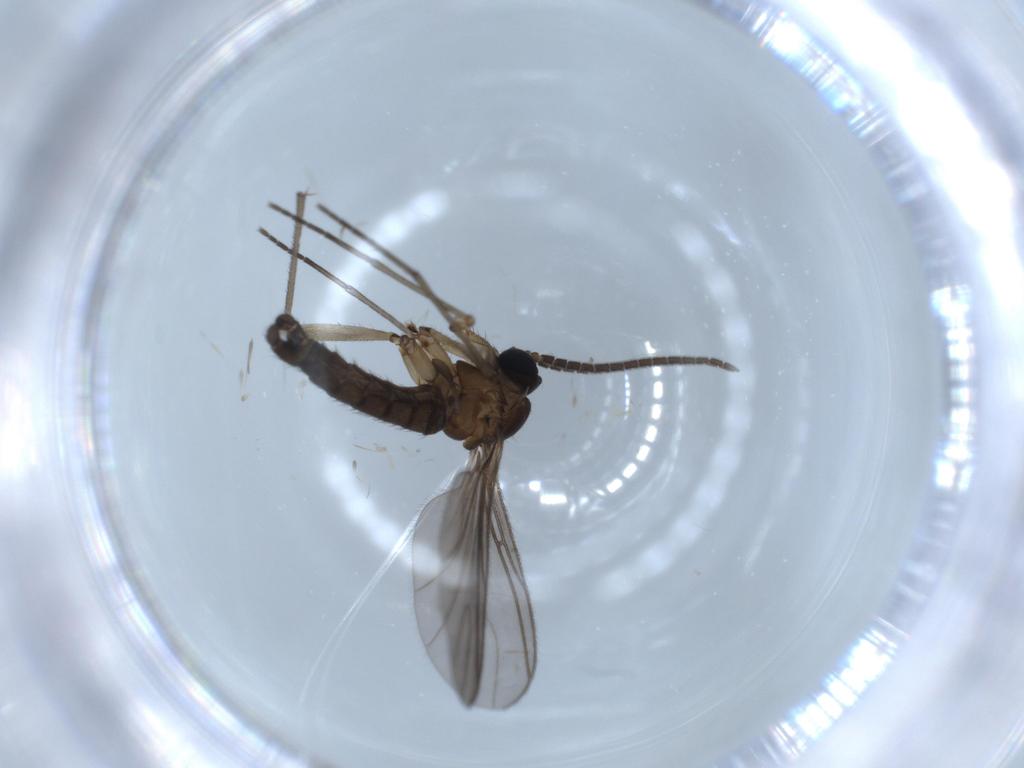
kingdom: Animalia
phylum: Arthropoda
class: Insecta
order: Diptera
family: Sciaridae
